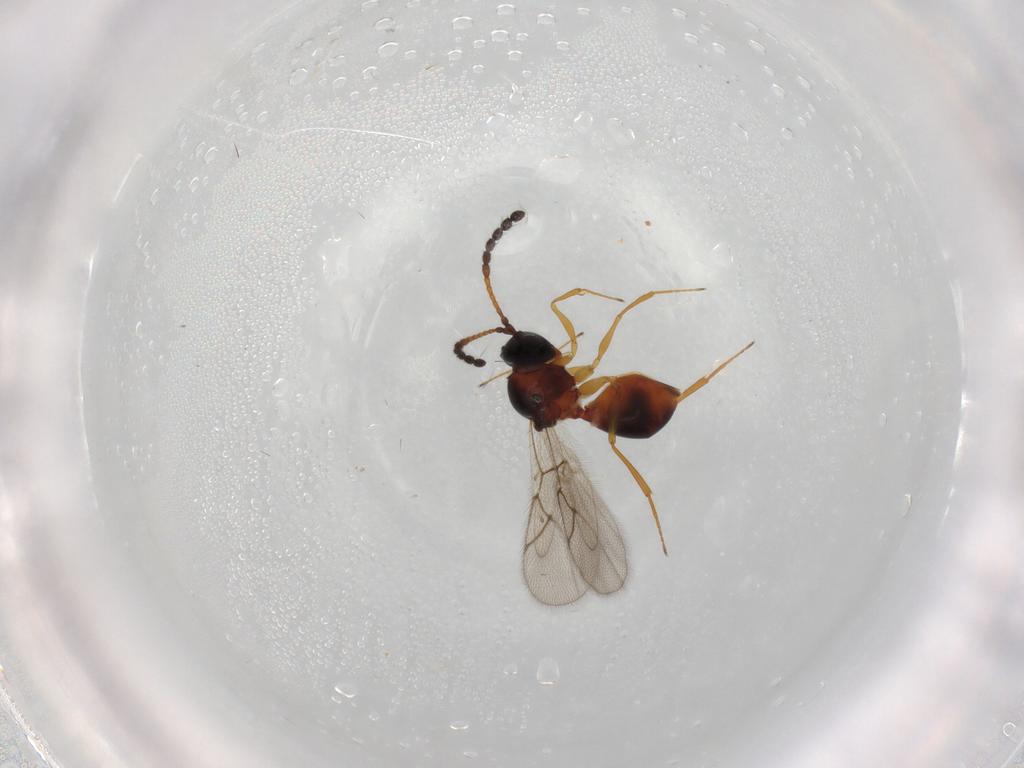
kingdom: Animalia
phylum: Arthropoda
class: Insecta
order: Hymenoptera
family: Figitidae
